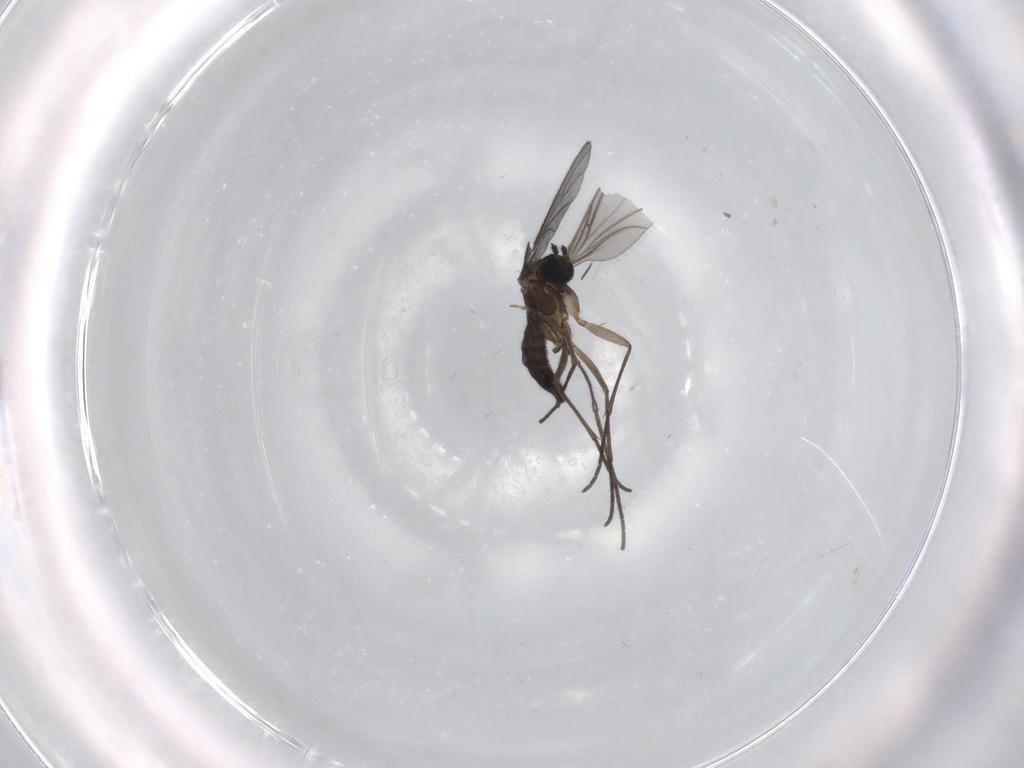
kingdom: Animalia
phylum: Arthropoda
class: Insecta
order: Diptera
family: Sciaridae
